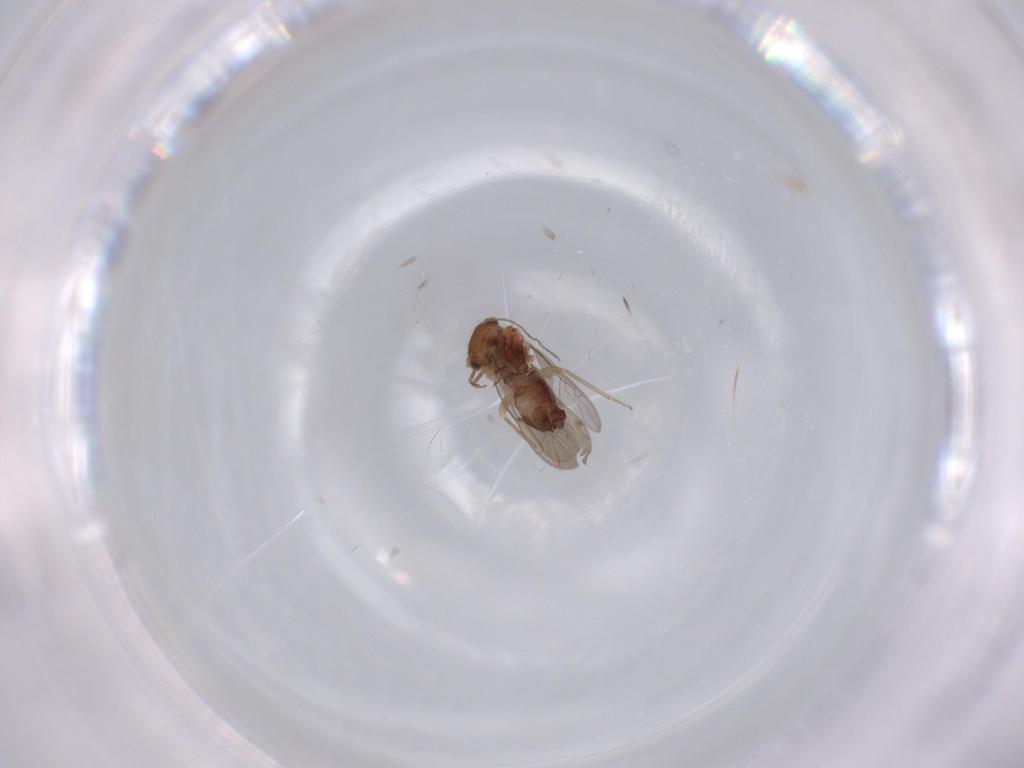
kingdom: Animalia
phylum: Arthropoda
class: Insecta
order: Psocodea
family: Ectopsocidae
